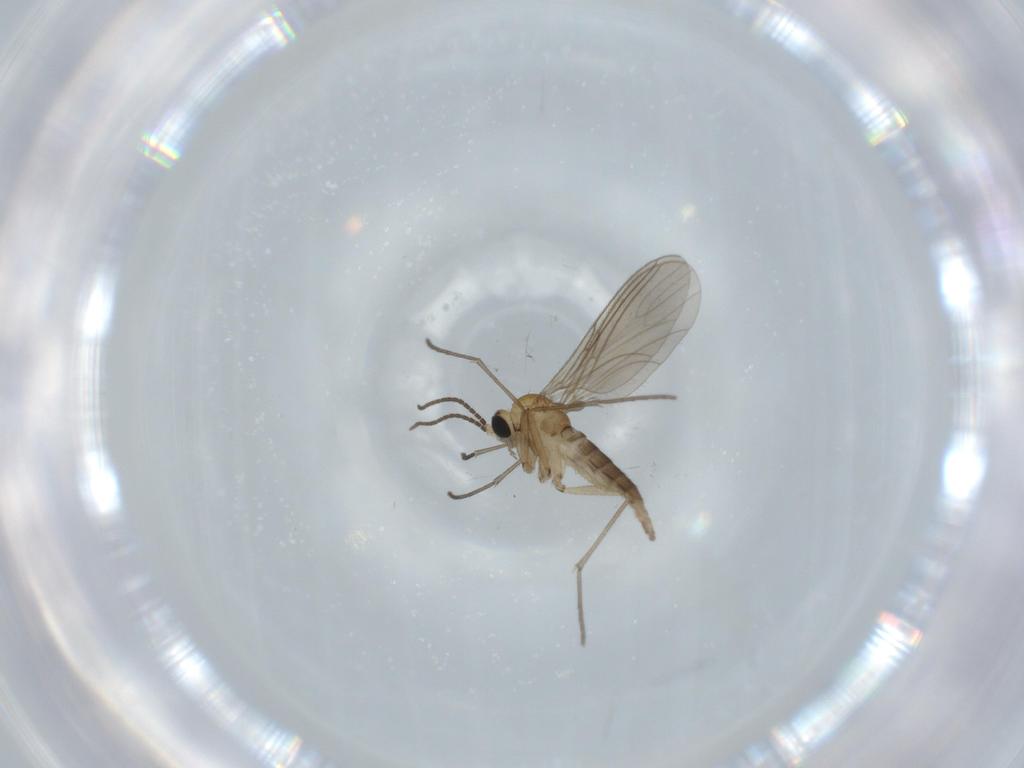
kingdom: Animalia
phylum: Arthropoda
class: Insecta
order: Diptera
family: Sciaridae
